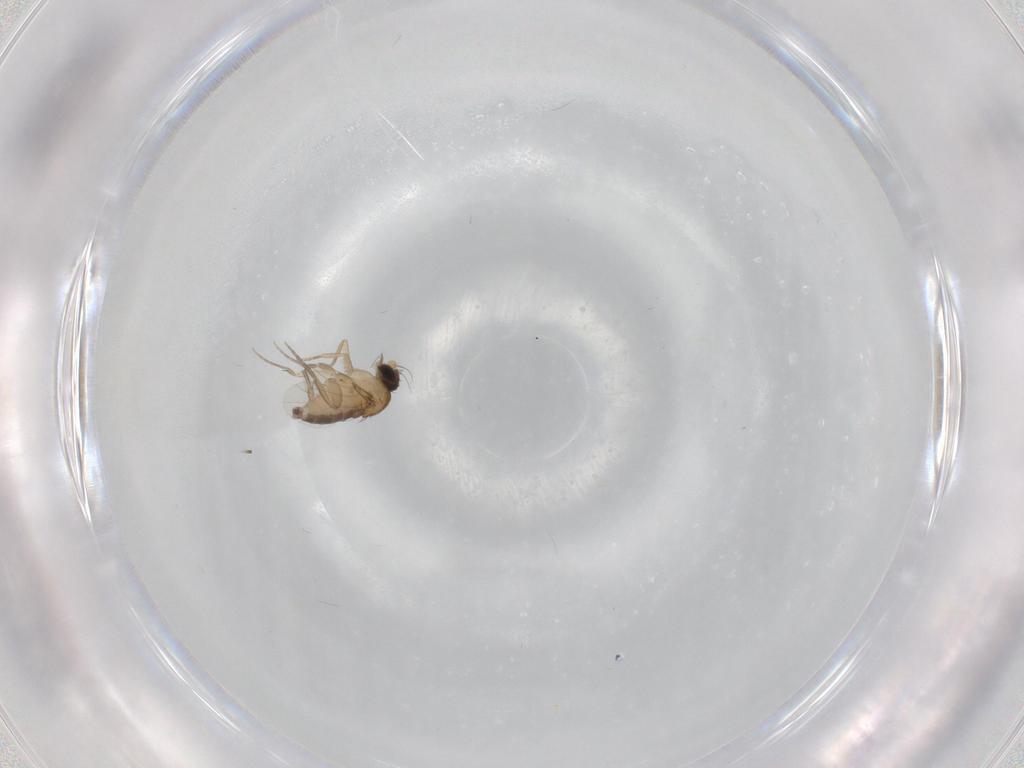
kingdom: Animalia
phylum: Arthropoda
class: Insecta
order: Diptera
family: Phoridae
